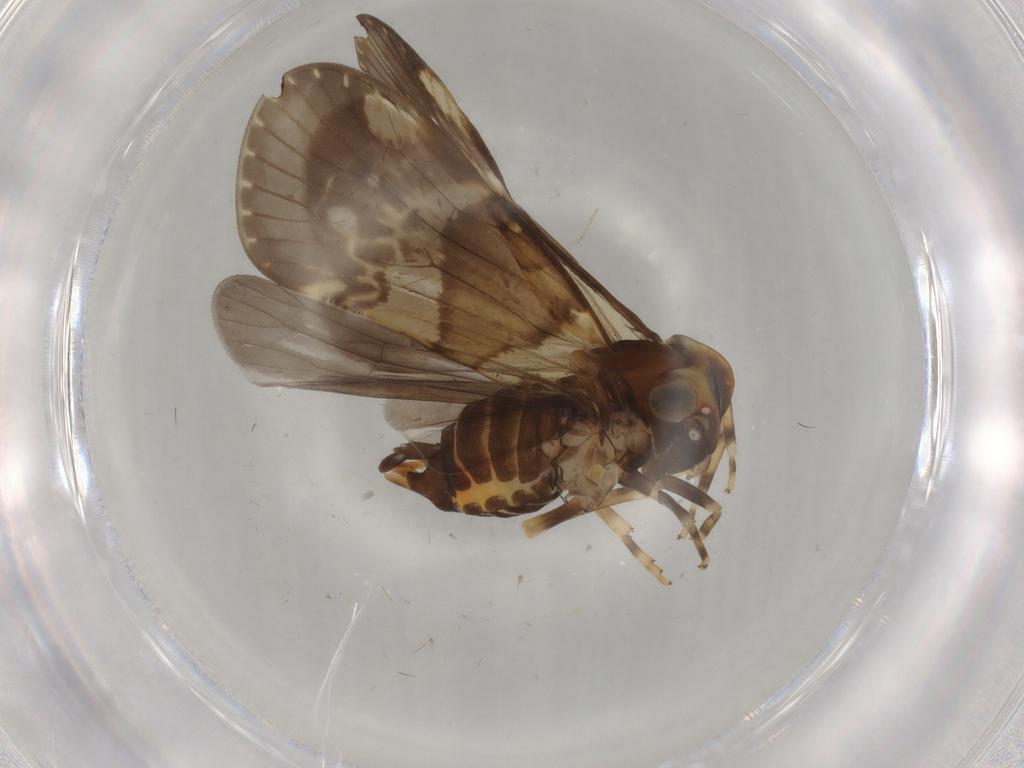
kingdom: Animalia
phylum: Arthropoda
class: Insecta
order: Hemiptera
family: Cixiidae
